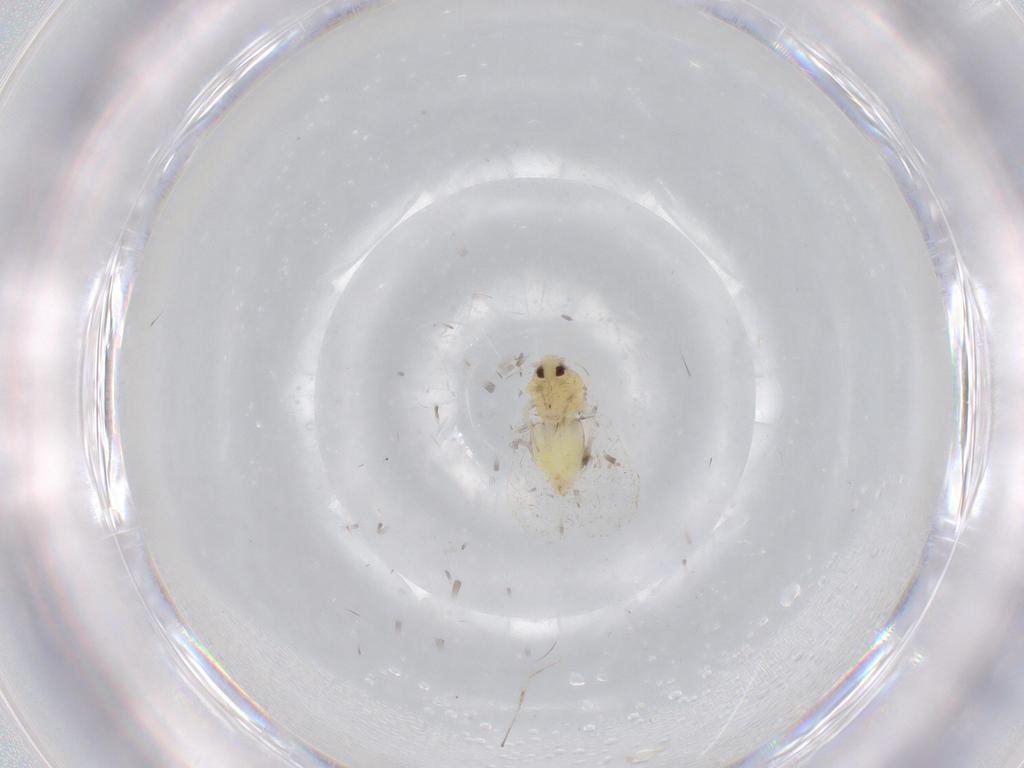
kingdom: Animalia
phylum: Arthropoda
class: Insecta
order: Hemiptera
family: Aleyrodidae
